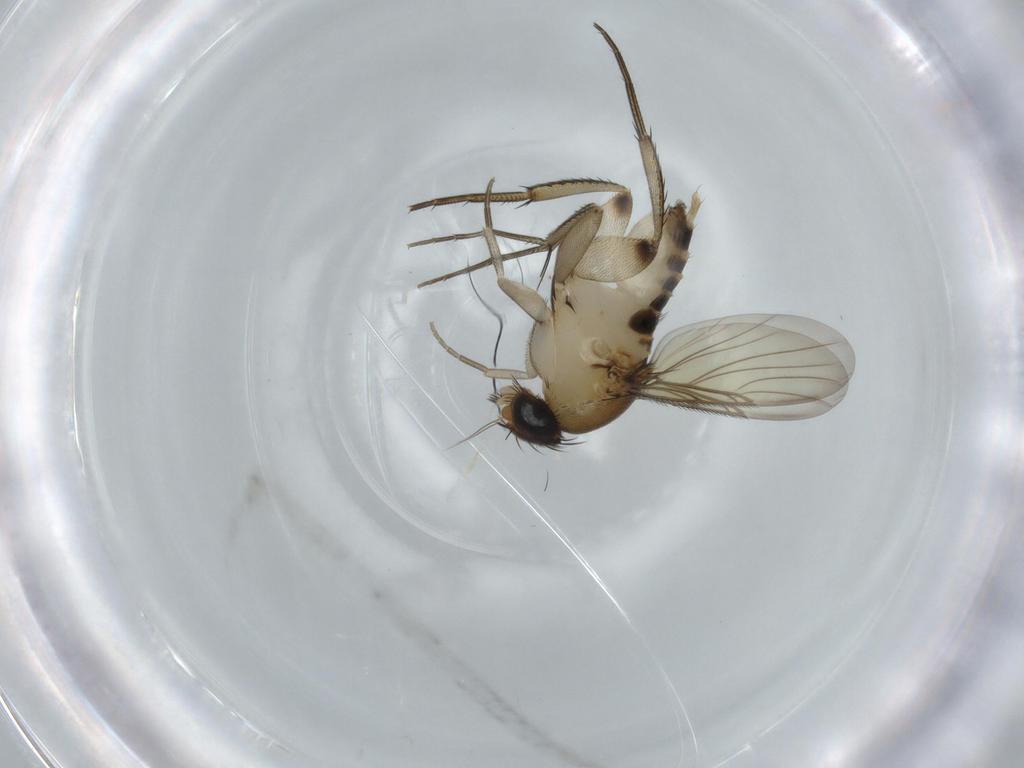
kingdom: Animalia
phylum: Arthropoda
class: Insecta
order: Diptera
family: Phoridae
